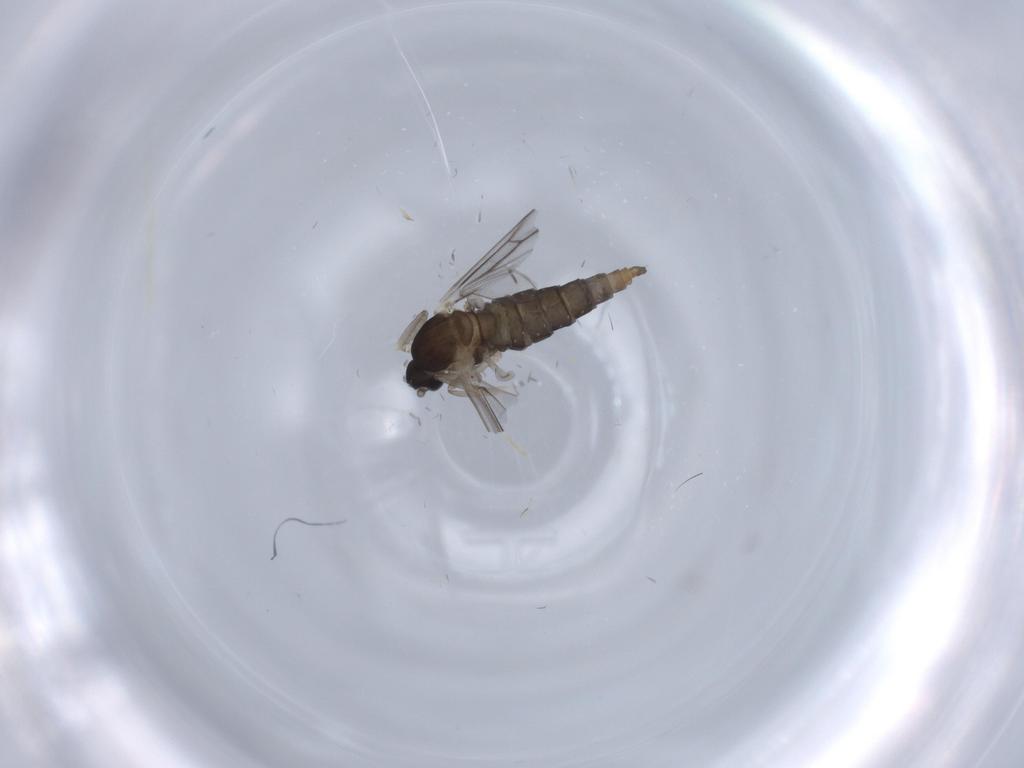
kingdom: Animalia
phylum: Arthropoda
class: Insecta
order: Diptera
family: Cecidomyiidae
